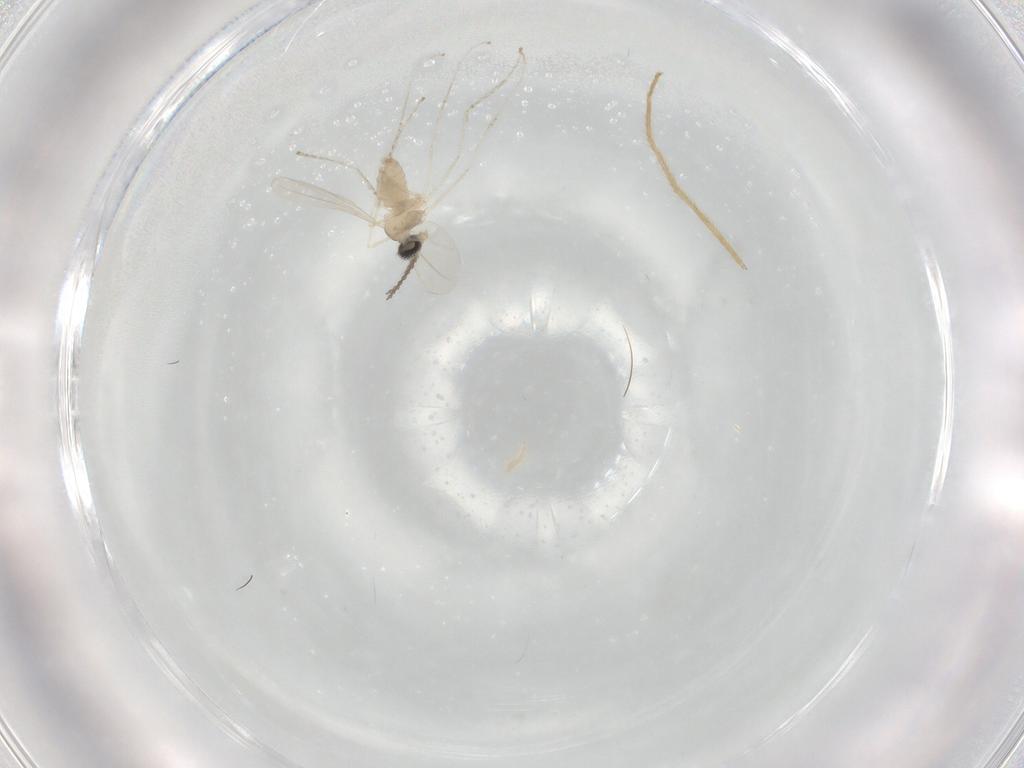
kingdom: Animalia
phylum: Arthropoda
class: Insecta
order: Diptera
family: Cecidomyiidae
